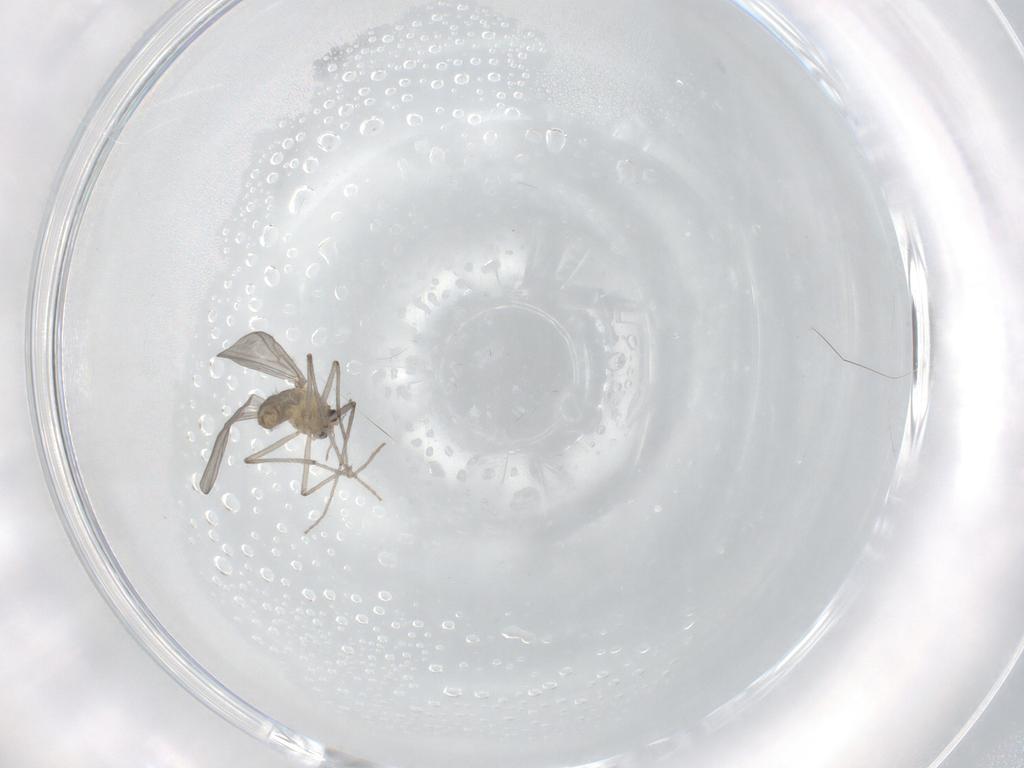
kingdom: Animalia
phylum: Arthropoda
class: Insecta
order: Diptera
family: Chironomidae
